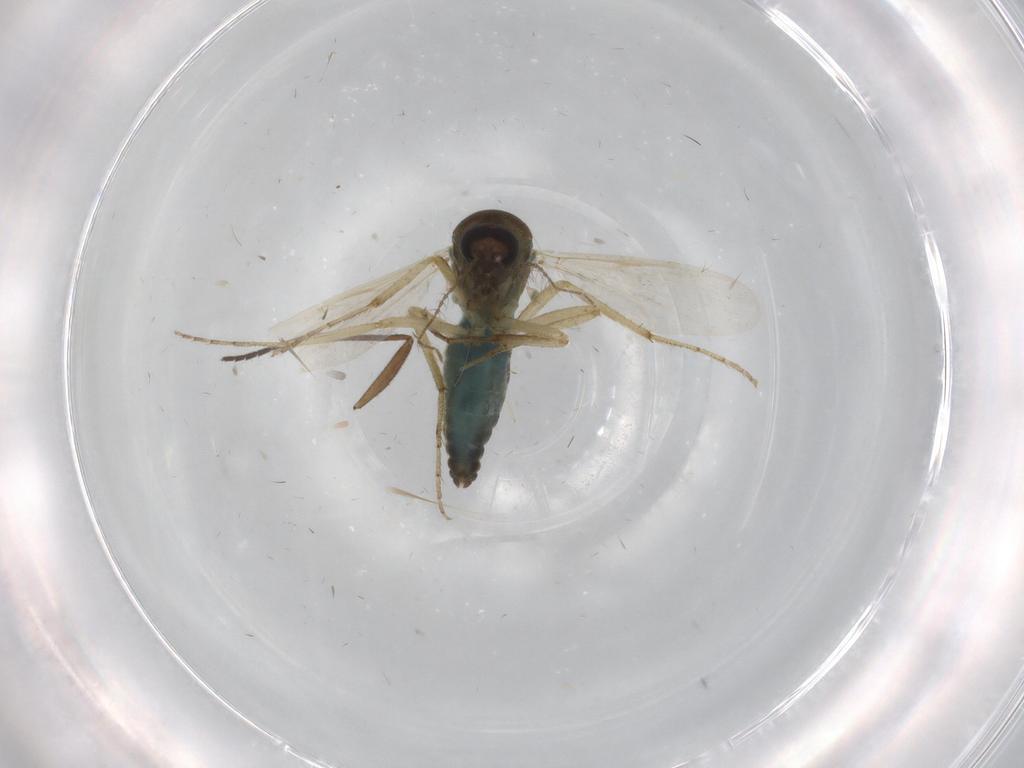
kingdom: Animalia
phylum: Arthropoda
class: Insecta
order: Diptera
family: Ceratopogonidae
